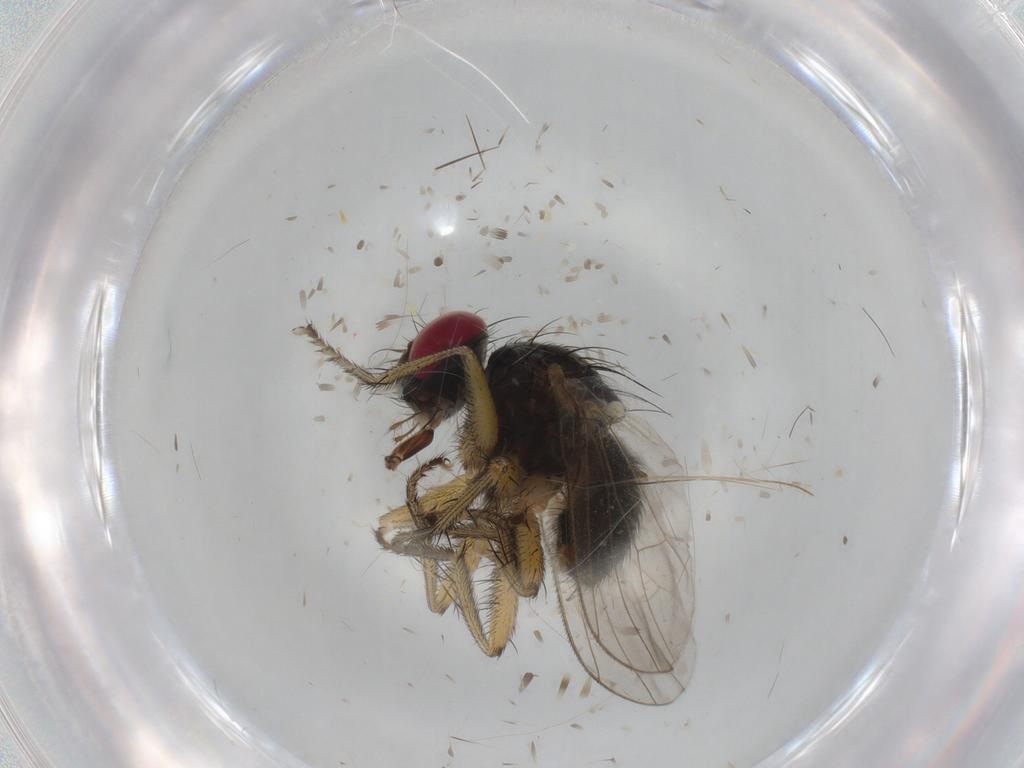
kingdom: Animalia
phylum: Arthropoda
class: Insecta
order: Diptera
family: Muscidae
